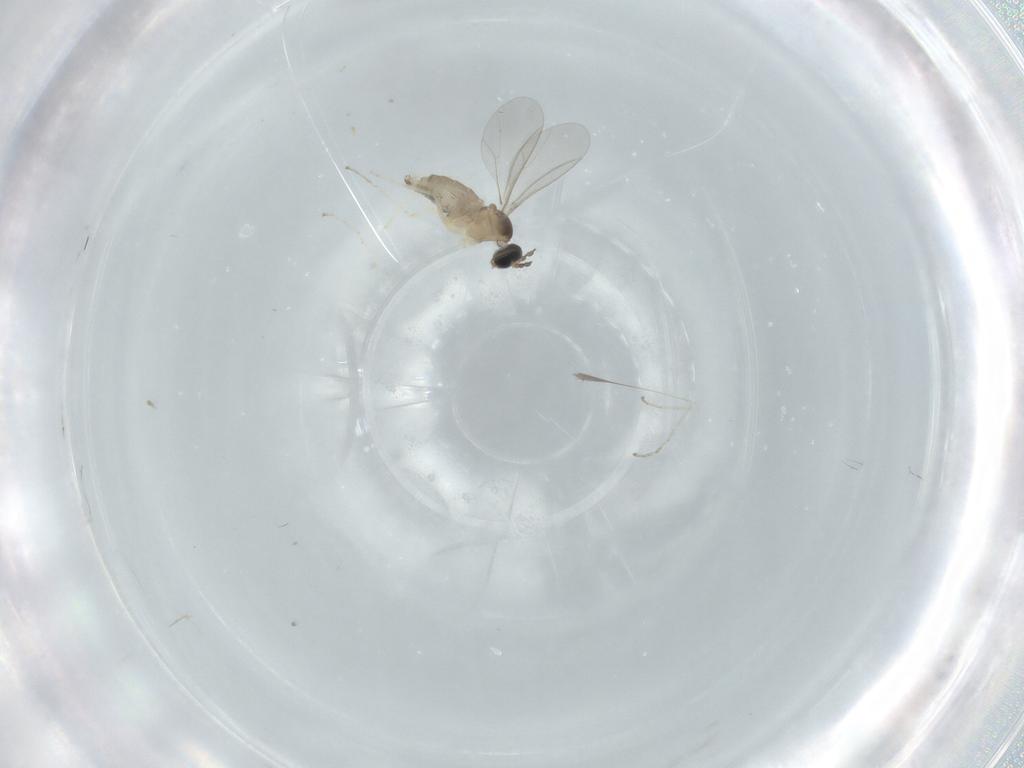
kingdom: Animalia
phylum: Arthropoda
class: Insecta
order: Diptera
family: Cecidomyiidae
